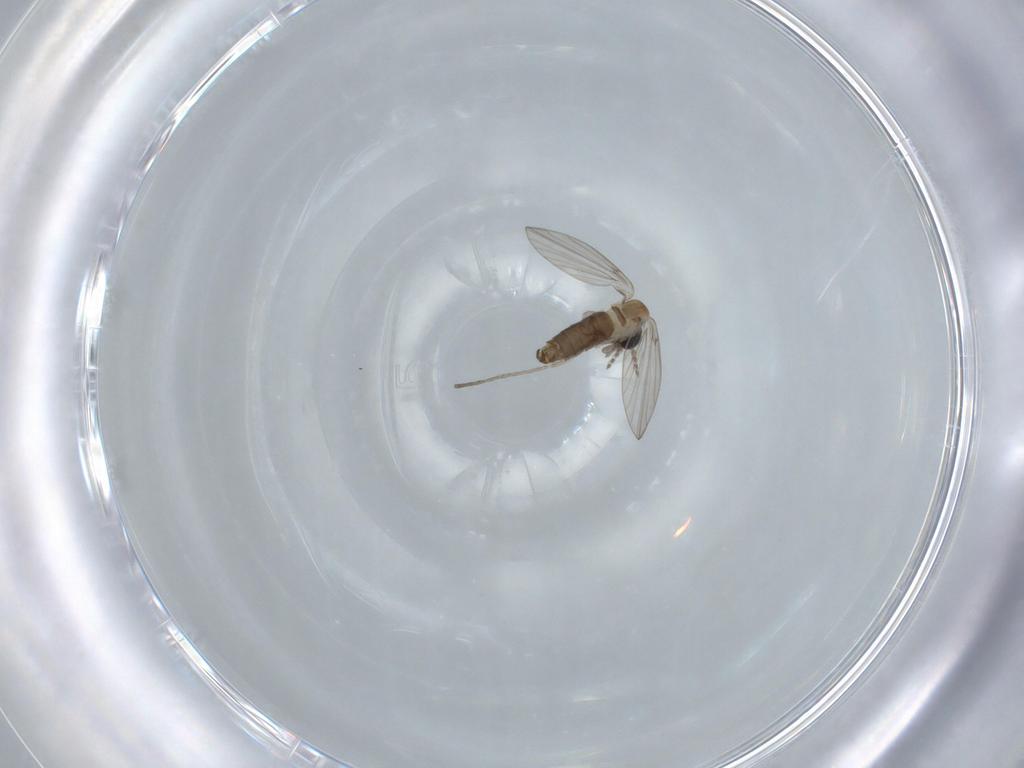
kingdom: Animalia
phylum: Arthropoda
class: Insecta
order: Diptera
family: Psychodidae
